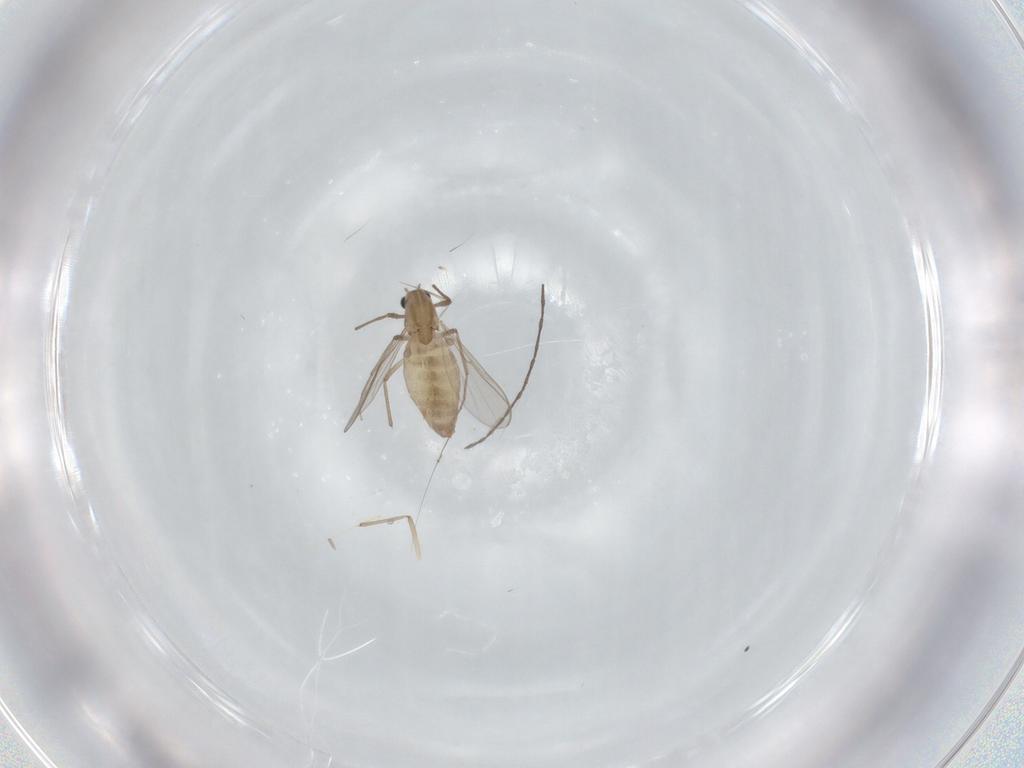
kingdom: Animalia
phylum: Arthropoda
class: Insecta
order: Diptera
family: Chironomidae
